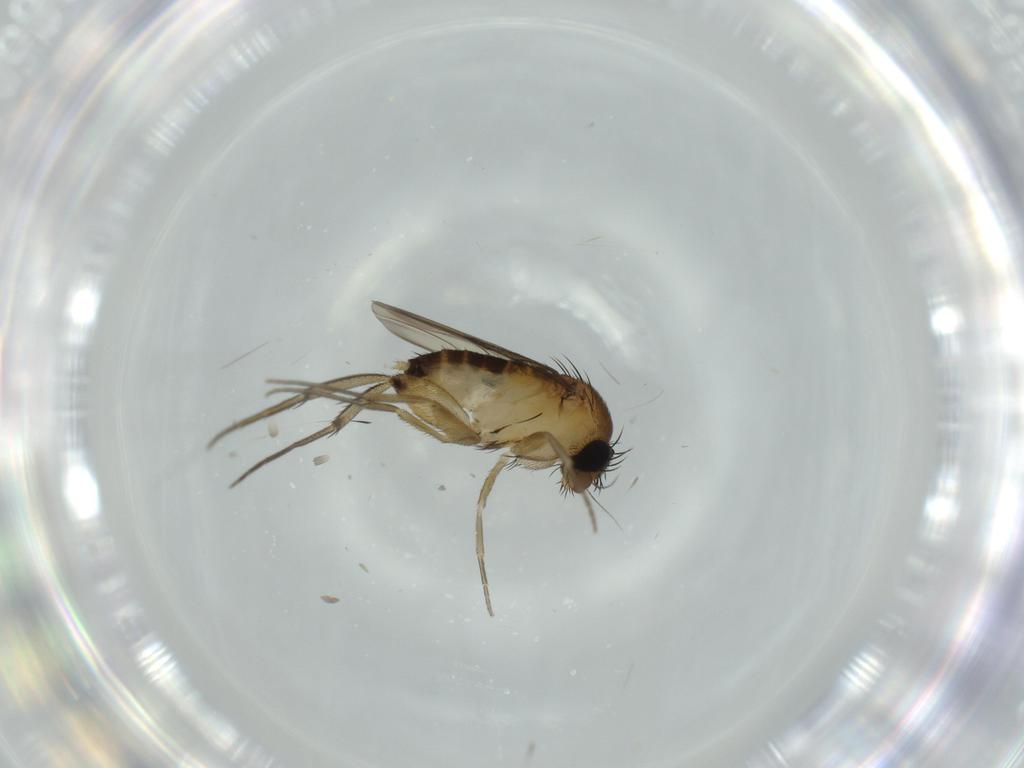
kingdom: Animalia
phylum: Arthropoda
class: Insecta
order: Diptera
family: Phoridae
